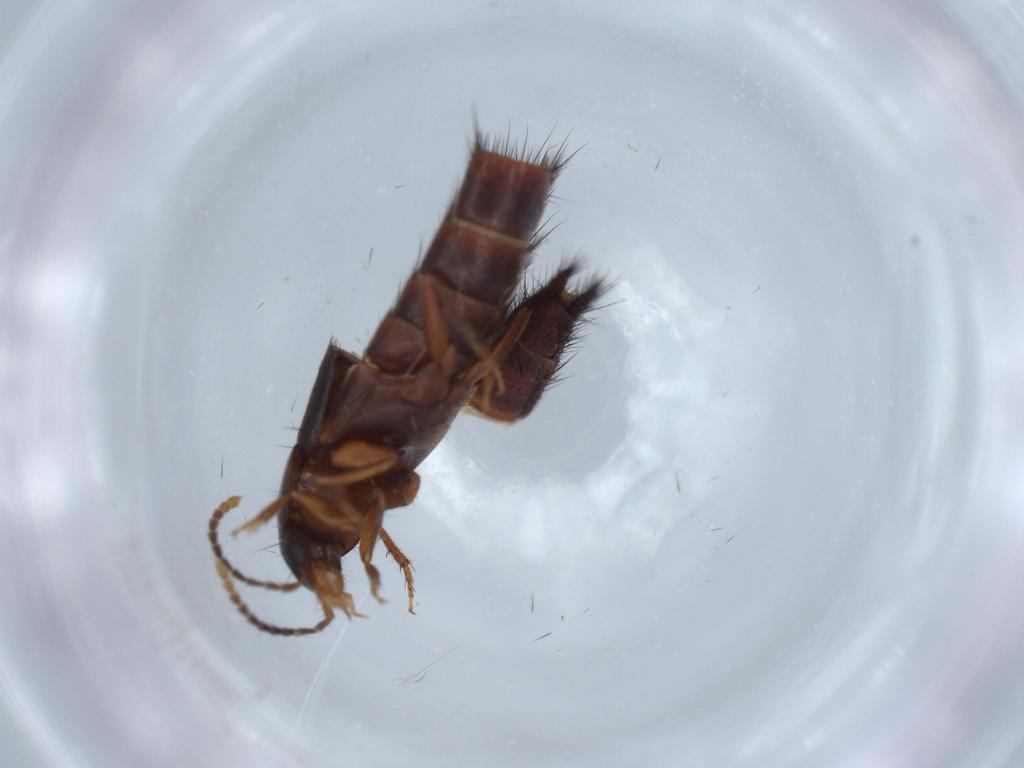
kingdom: Animalia
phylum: Arthropoda
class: Insecta
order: Coleoptera
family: Staphylinidae
